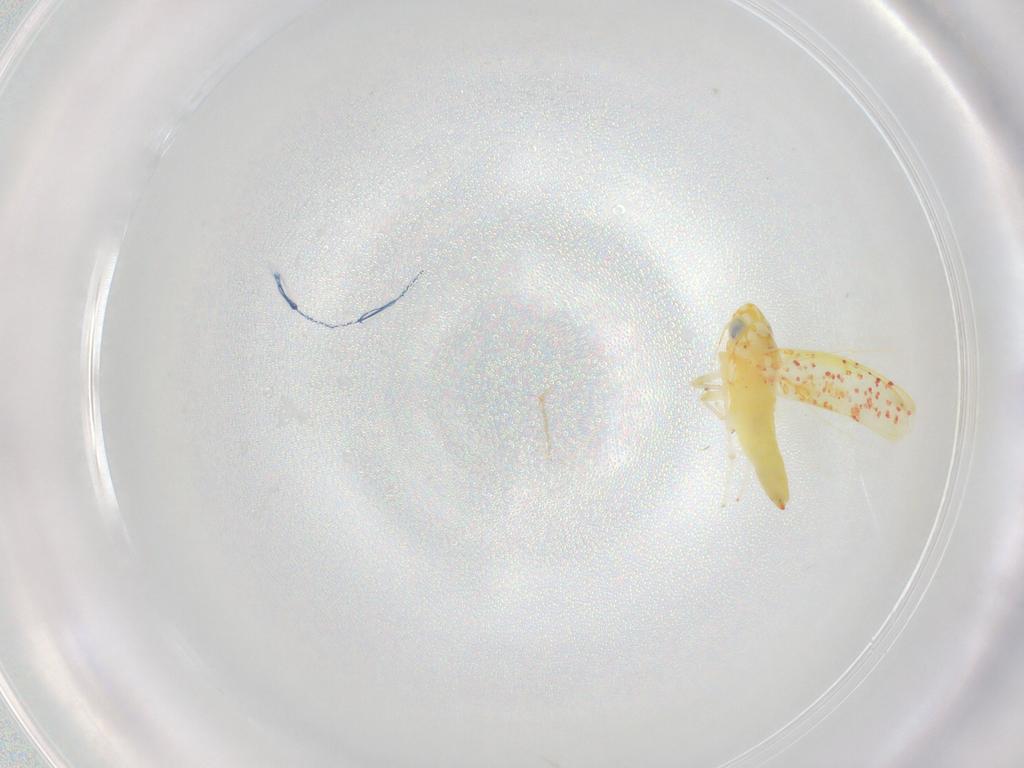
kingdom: Animalia
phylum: Arthropoda
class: Insecta
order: Hemiptera
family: Cicadellidae
